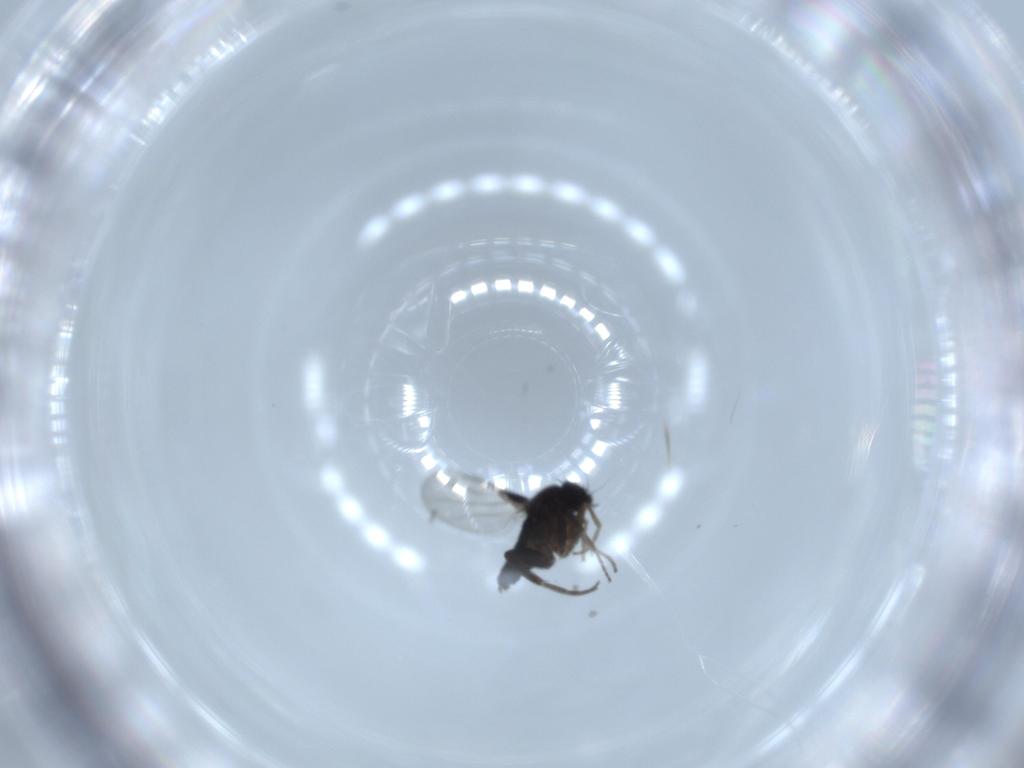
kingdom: Animalia
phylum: Arthropoda
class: Insecta
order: Diptera
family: Phoridae
